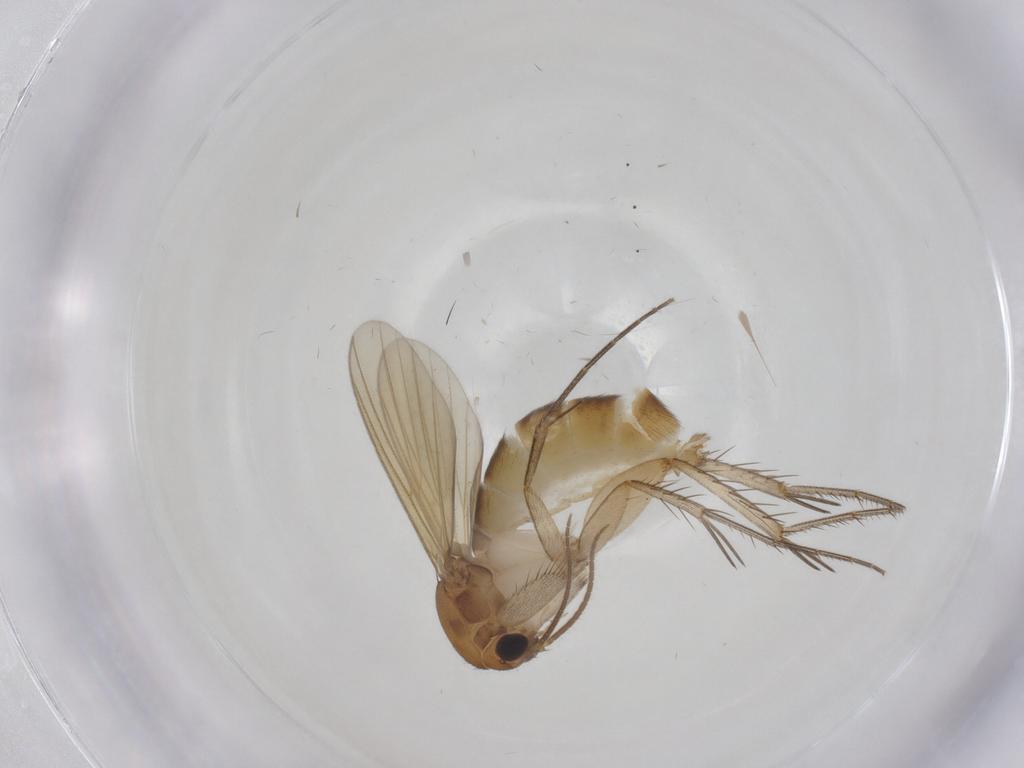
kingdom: Animalia
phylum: Arthropoda
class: Insecta
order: Diptera
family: Mycetophilidae
